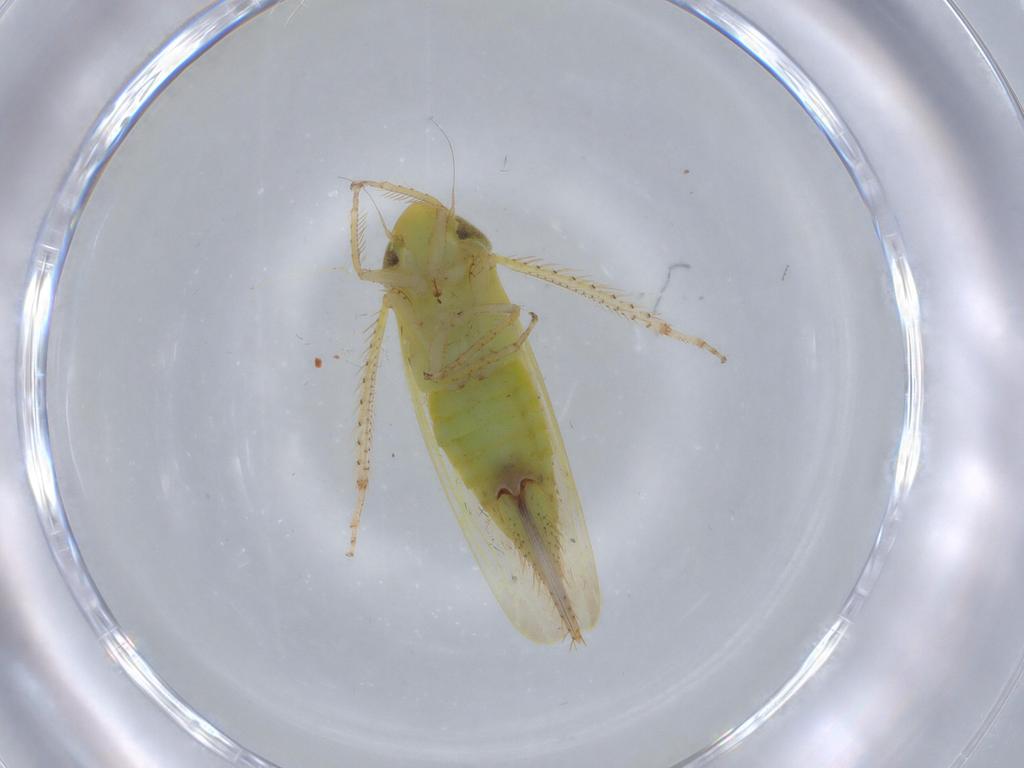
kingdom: Animalia
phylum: Arthropoda
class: Insecta
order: Hemiptera
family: Cicadellidae
